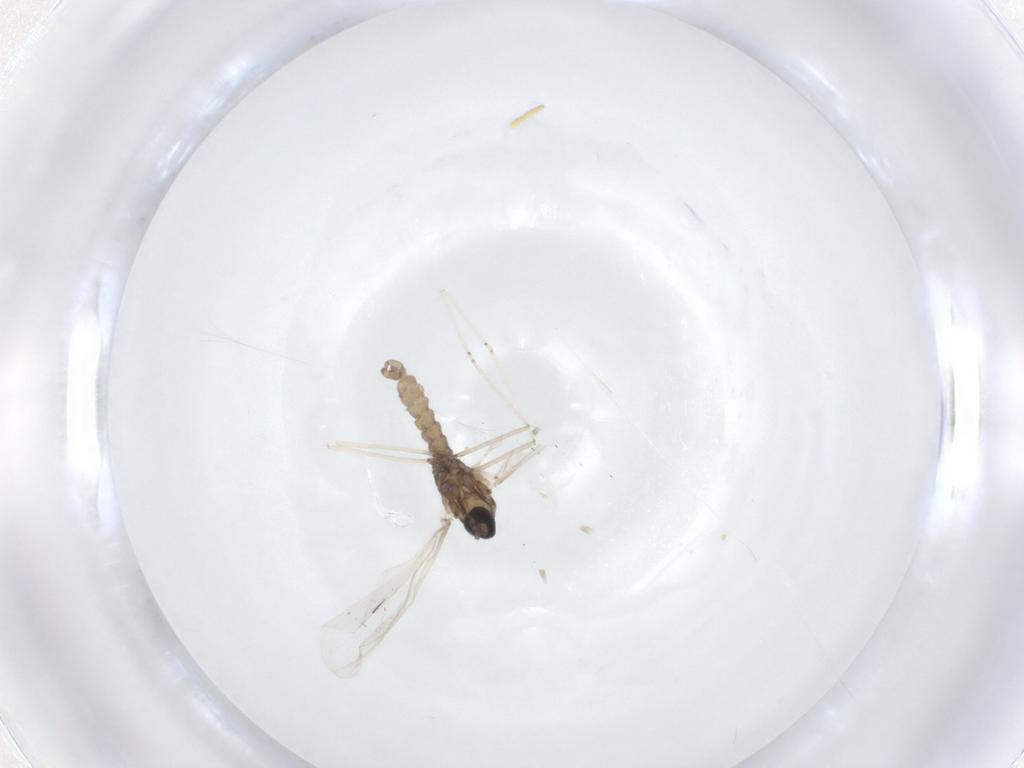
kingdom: Animalia
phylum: Arthropoda
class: Insecta
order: Diptera
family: Cecidomyiidae
